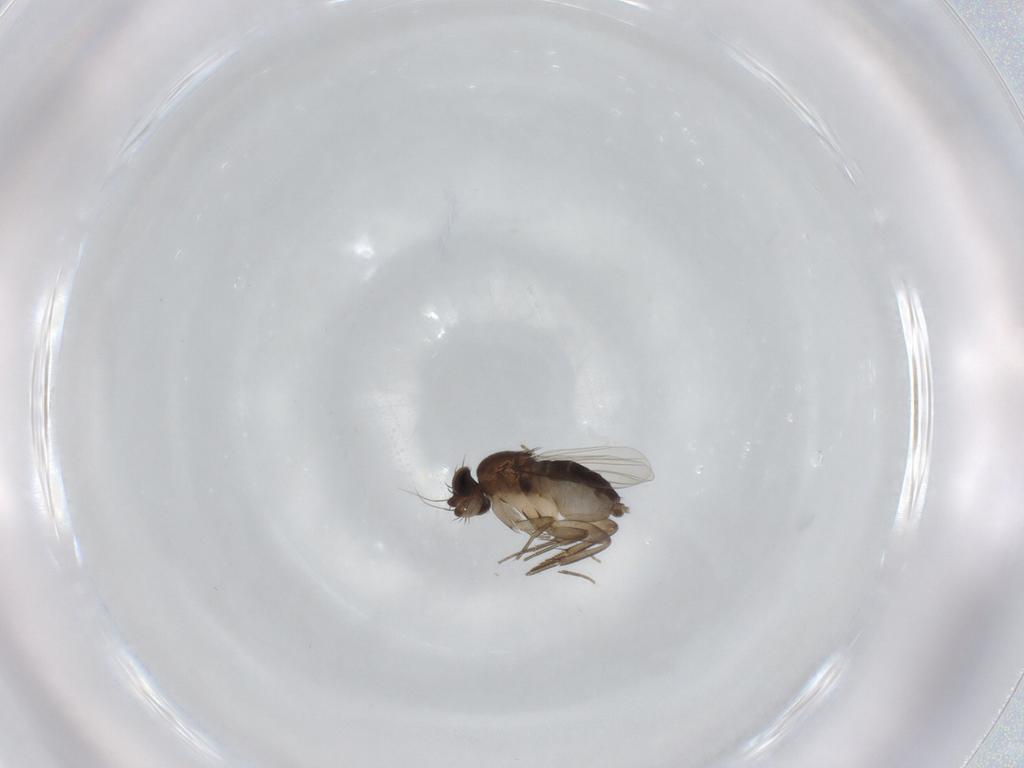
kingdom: Animalia
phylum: Arthropoda
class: Insecta
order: Diptera
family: Phoridae
